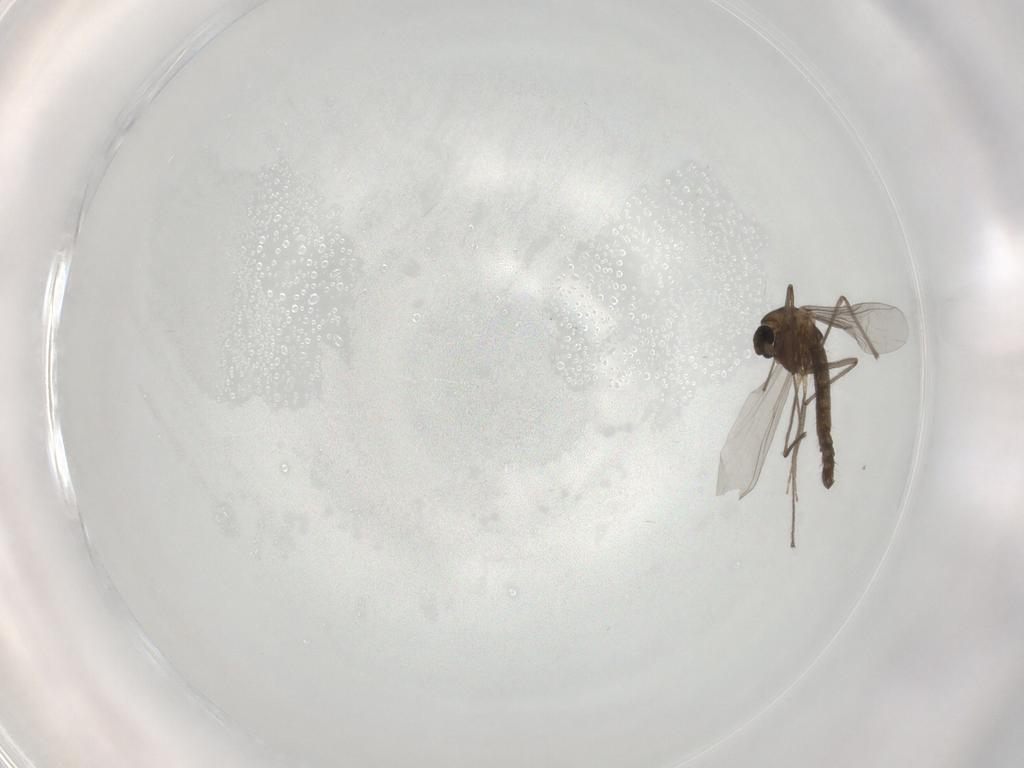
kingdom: Animalia
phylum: Arthropoda
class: Insecta
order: Diptera
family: Chironomidae
